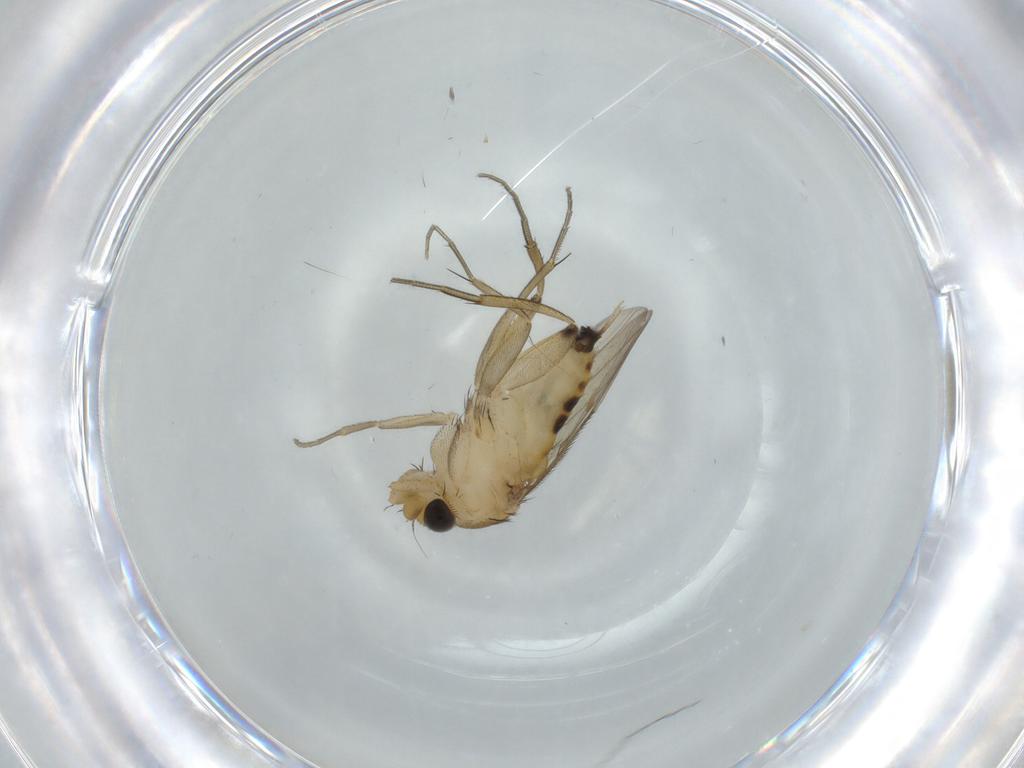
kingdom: Animalia
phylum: Arthropoda
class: Insecta
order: Diptera
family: Phoridae
